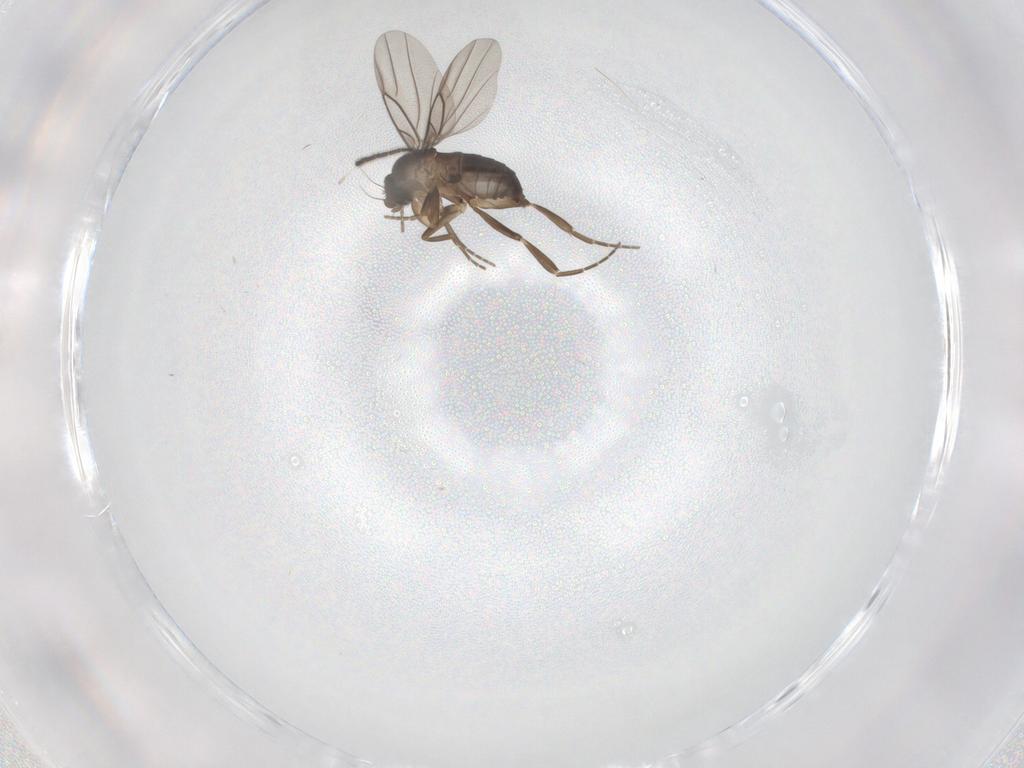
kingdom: Animalia
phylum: Arthropoda
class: Insecta
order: Diptera
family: Sciaridae
